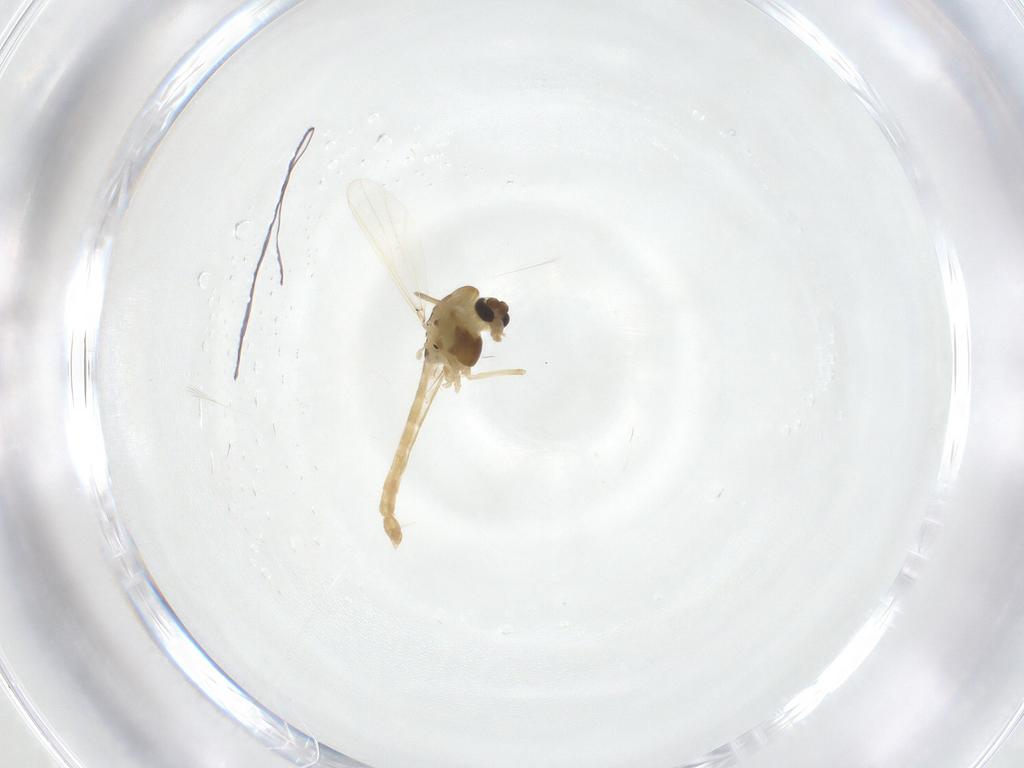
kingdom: Animalia
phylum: Arthropoda
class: Insecta
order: Diptera
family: Chironomidae
